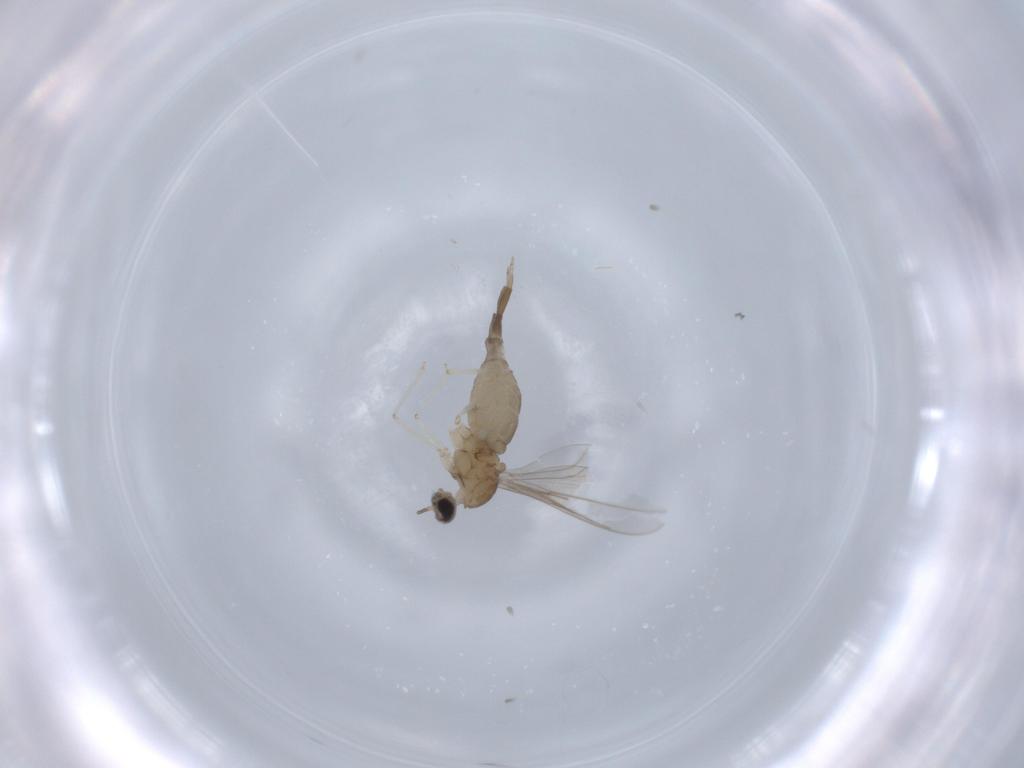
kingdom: Animalia
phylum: Arthropoda
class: Insecta
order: Diptera
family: Cecidomyiidae
